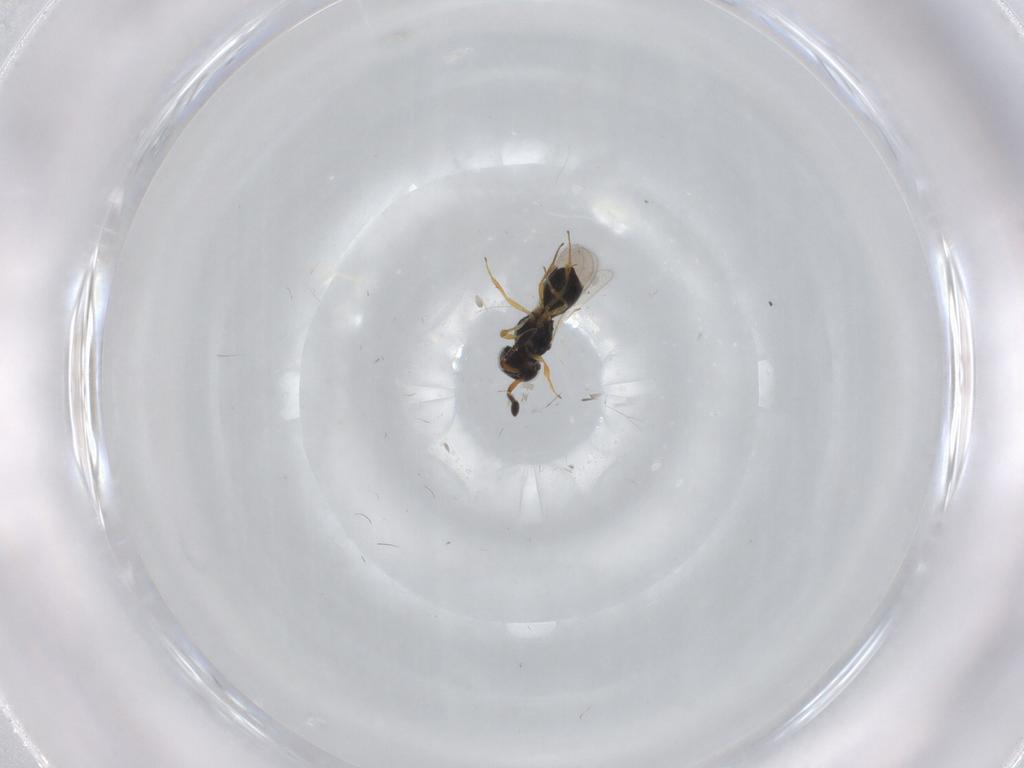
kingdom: Animalia
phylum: Arthropoda
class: Insecta
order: Hymenoptera
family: Scelionidae
